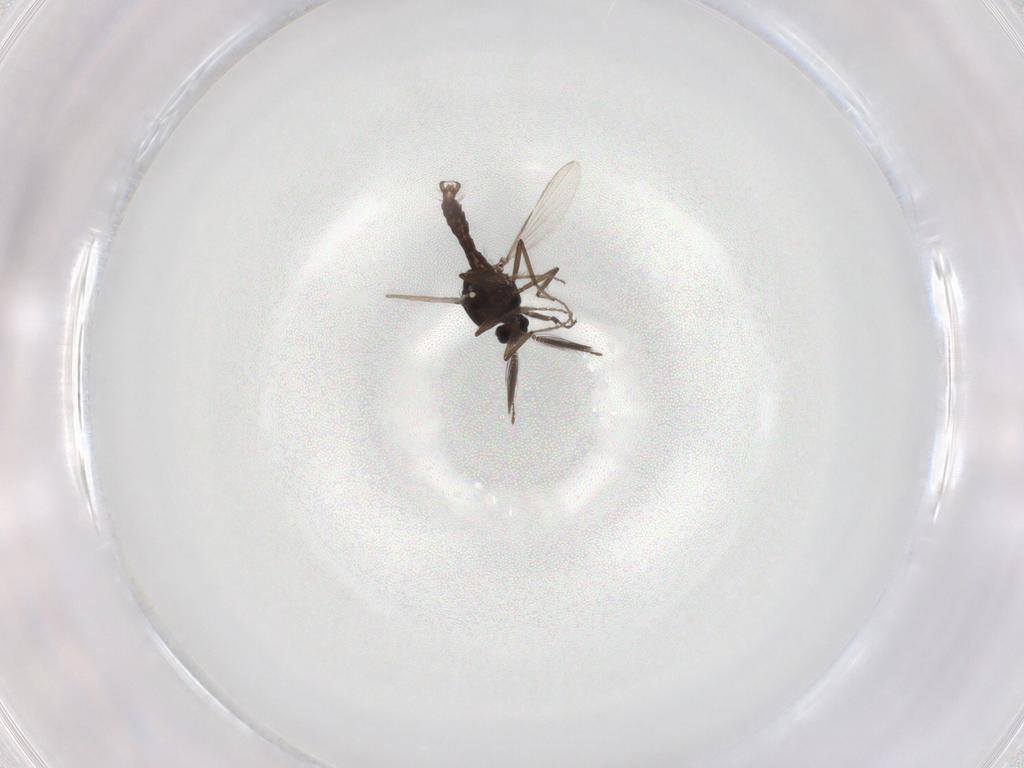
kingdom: Animalia
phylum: Arthropoda
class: Insecta
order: Diptera
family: Ceratopogonidae
